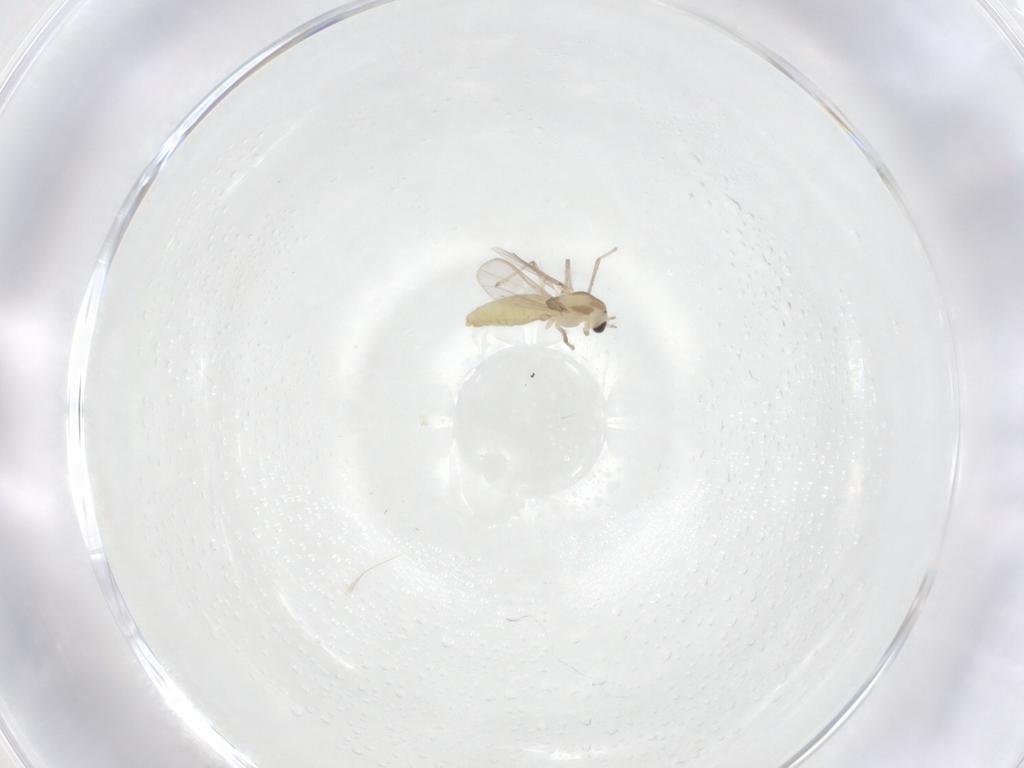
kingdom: Animalia
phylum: Arthropoda
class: Insecta
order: Diptera
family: Chironomidae
